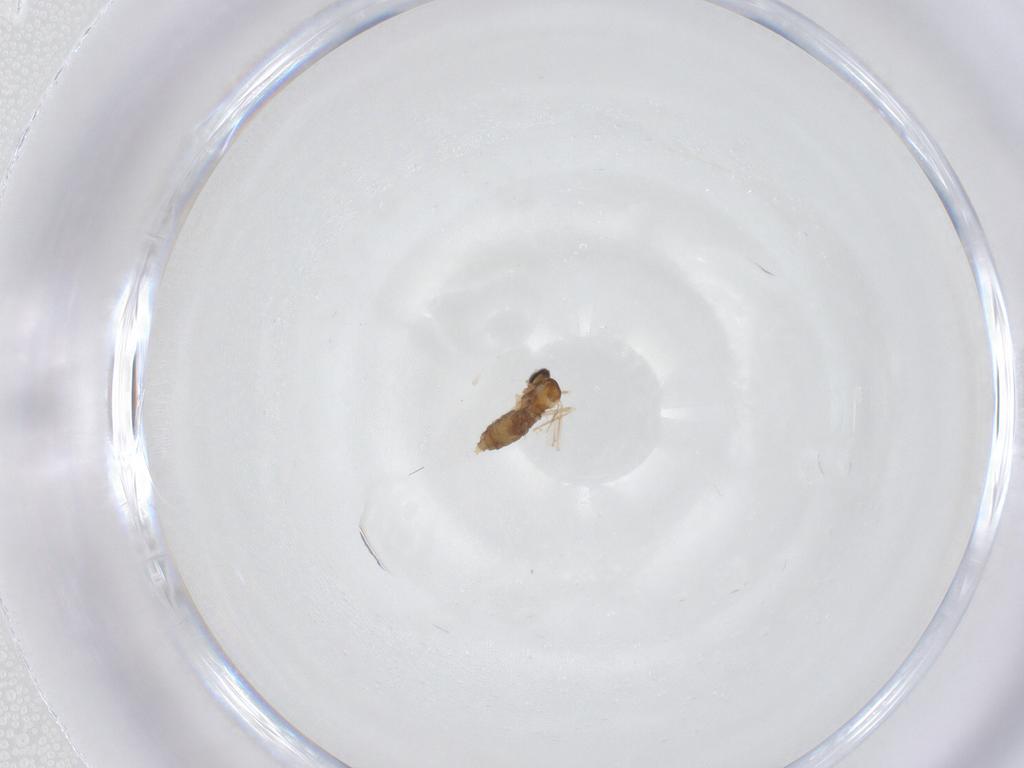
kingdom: Animalia
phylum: Arthropoda
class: Insecta
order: Diptera
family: Cecidomyiidae
